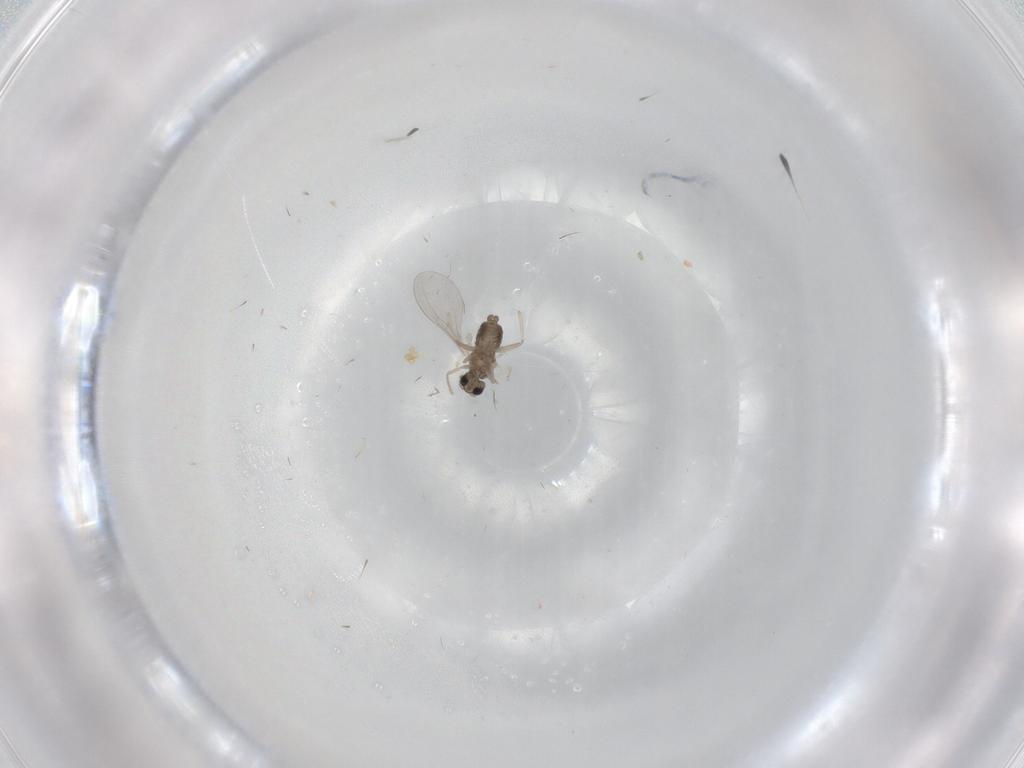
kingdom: Animalia
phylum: Arthropoda
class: Insecta
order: Diptera
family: Cecidomyiidae
